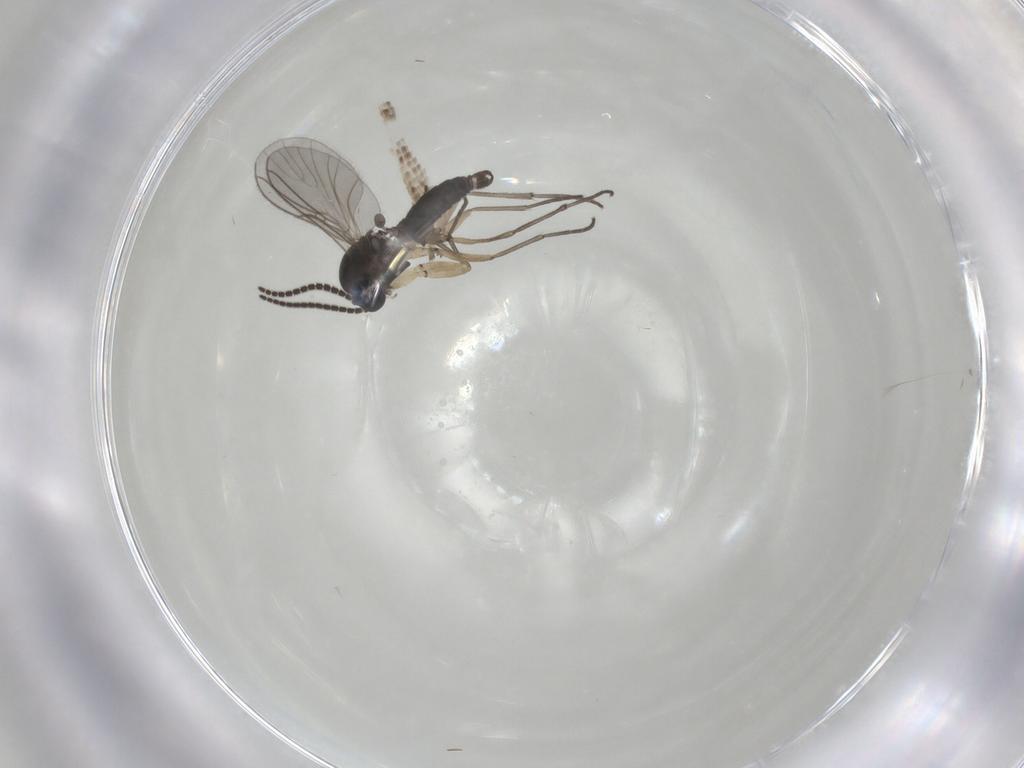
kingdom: Animalia
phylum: Arthropoda
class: Insecta
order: Diptera
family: Sciaridae
